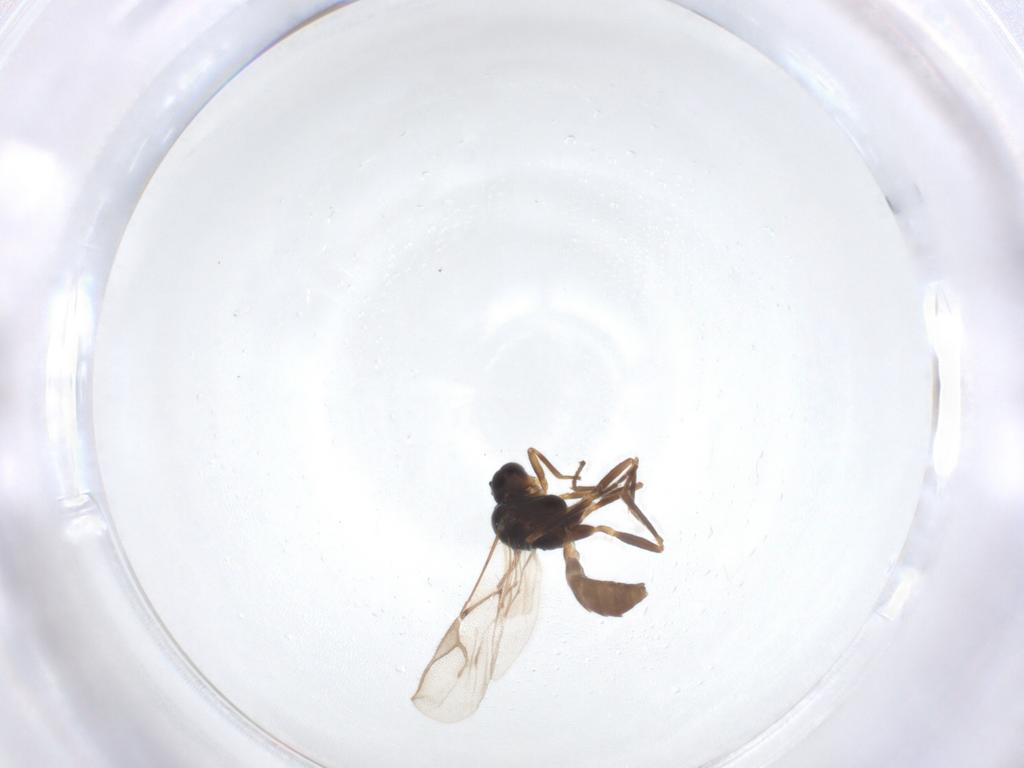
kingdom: Animalia
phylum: Arthropoda
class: Insecta
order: Hymenoptera
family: Braconidae
